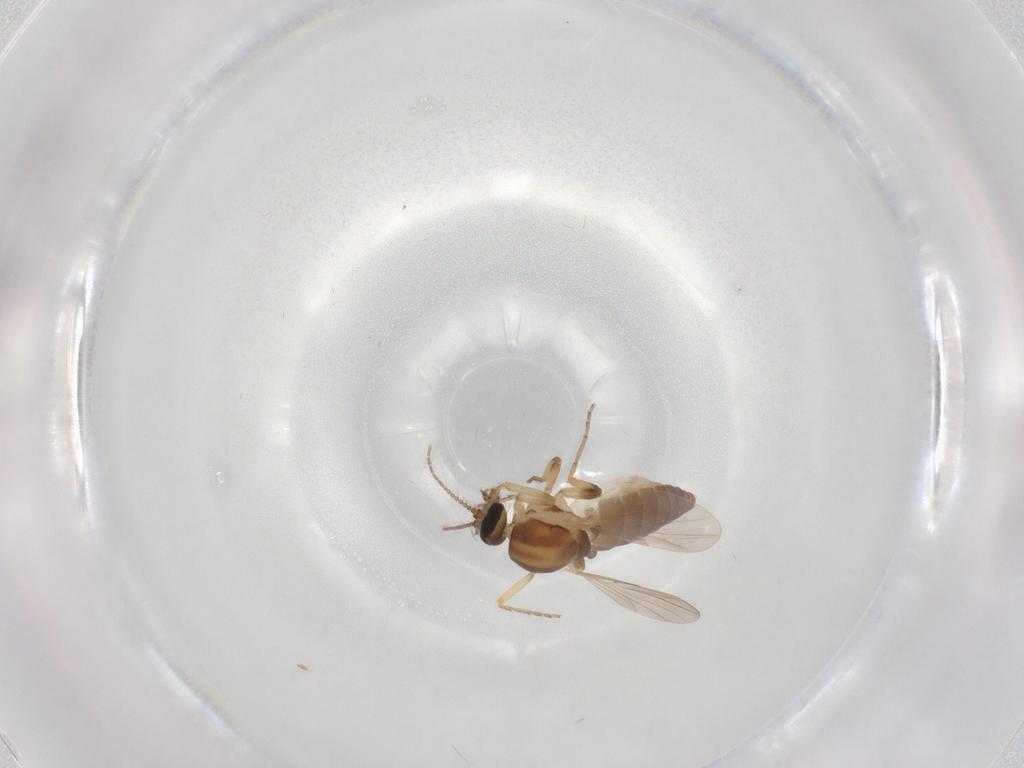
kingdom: Animalia
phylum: Arthropoda
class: Insecta
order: Diptera
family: Ceratopogonidae
